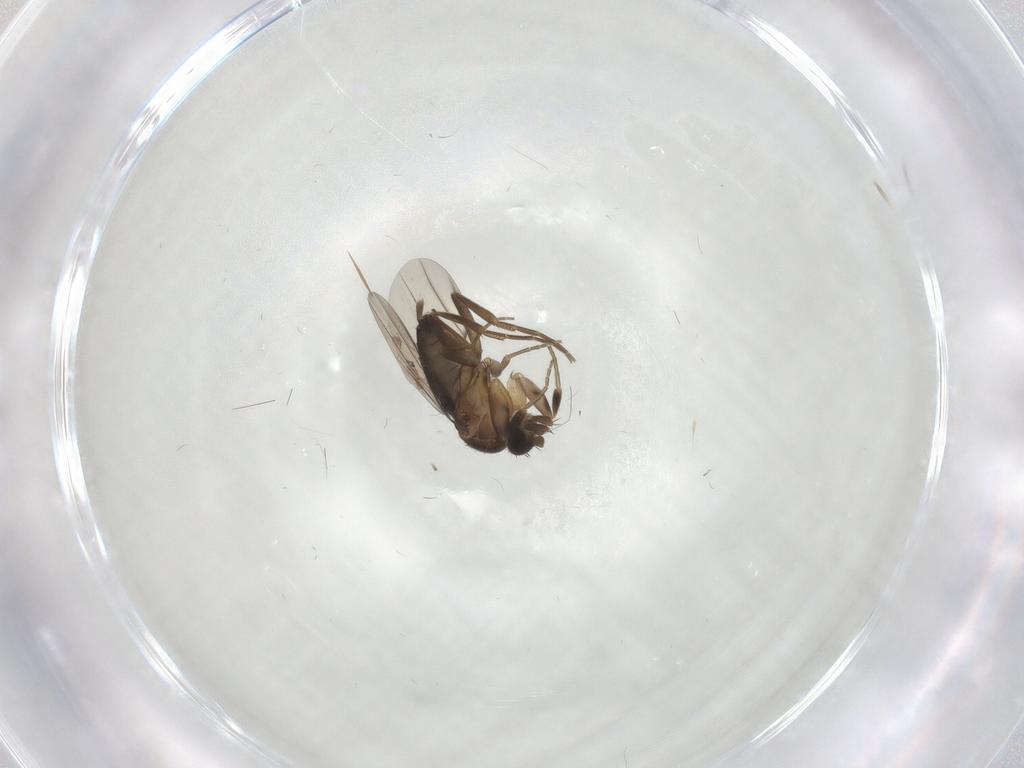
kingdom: Animalia
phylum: Arthropoda
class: Insecta
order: Diptera
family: Phoridae
